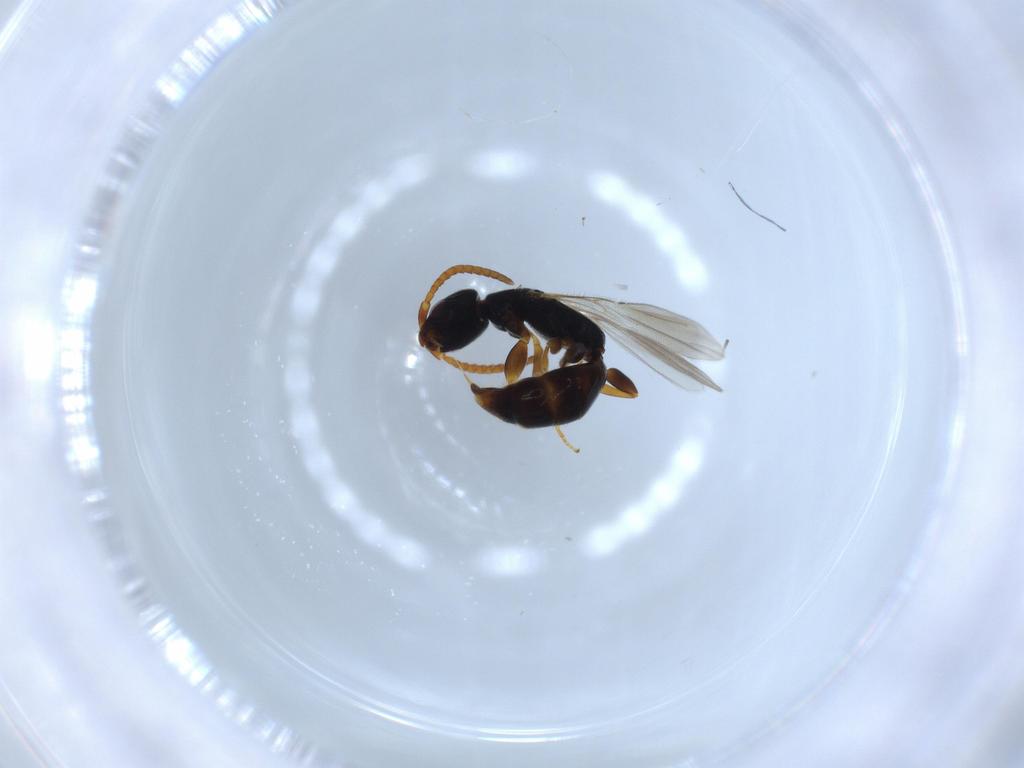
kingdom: Animalia
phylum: Arthropoda
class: Insecta
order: Hymenoptera
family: Bethylidae
